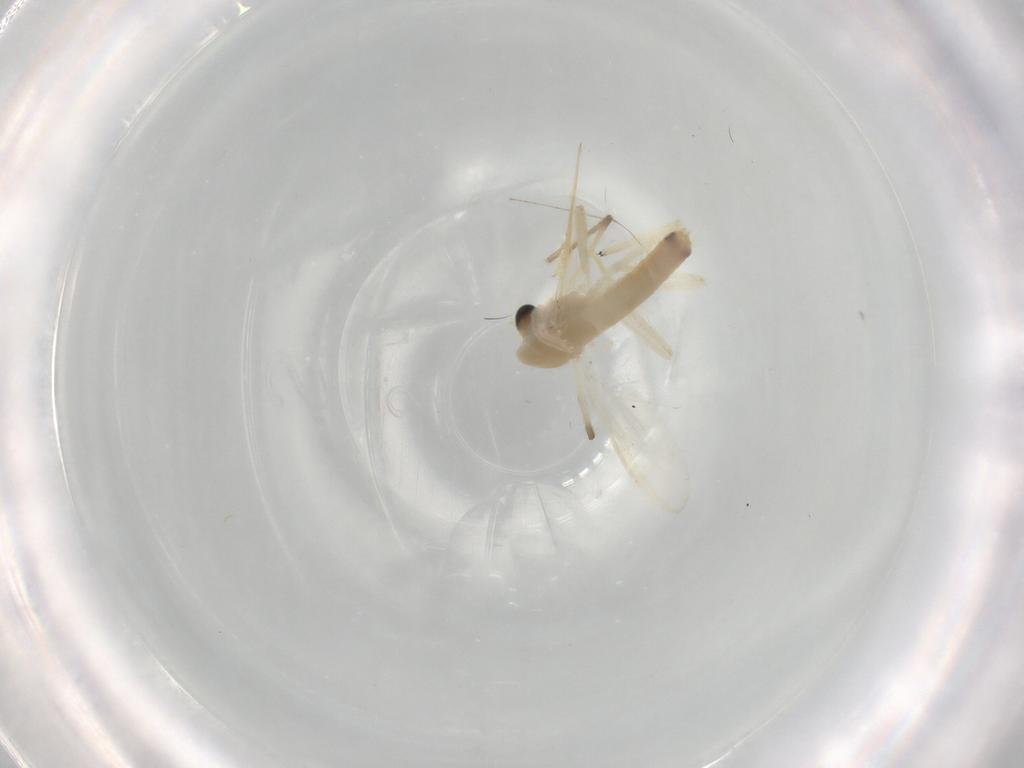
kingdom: Animalia
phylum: Arthropoda
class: Insecta
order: Diptera
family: Chironomidae
